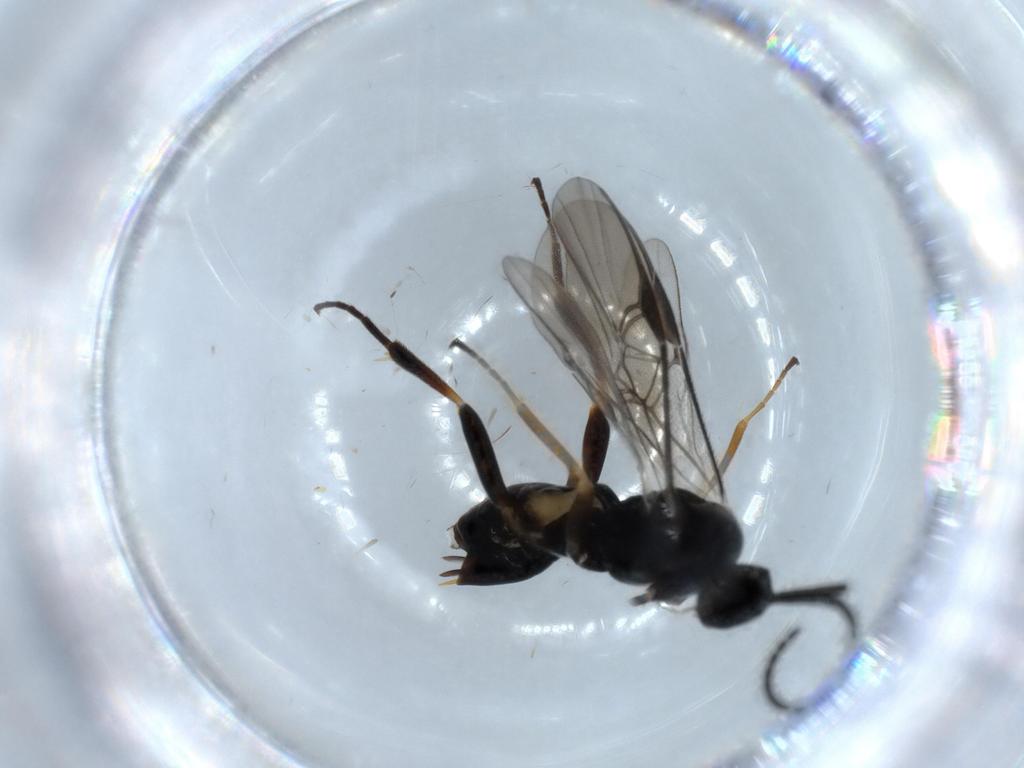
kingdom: Animalia
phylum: Arthropoda
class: Insecta
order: Hymenoptera
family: Braconidae
